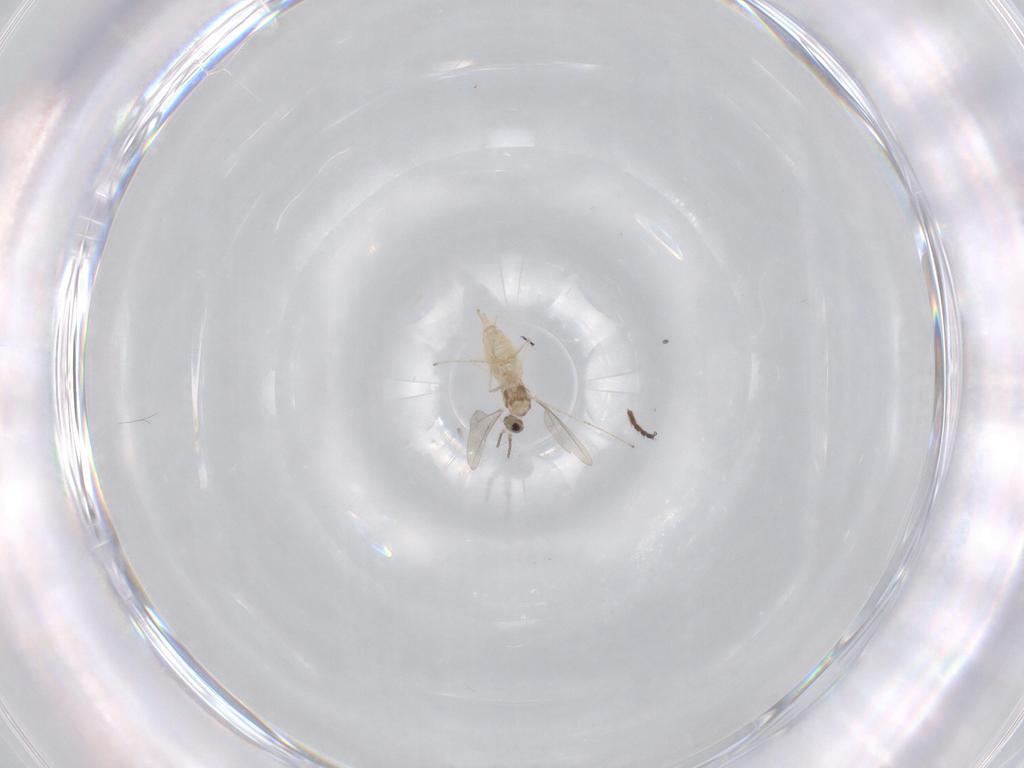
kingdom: Animalia
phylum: Arthropoda
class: Insecta
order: Diptera
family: Cecidomyiidae
